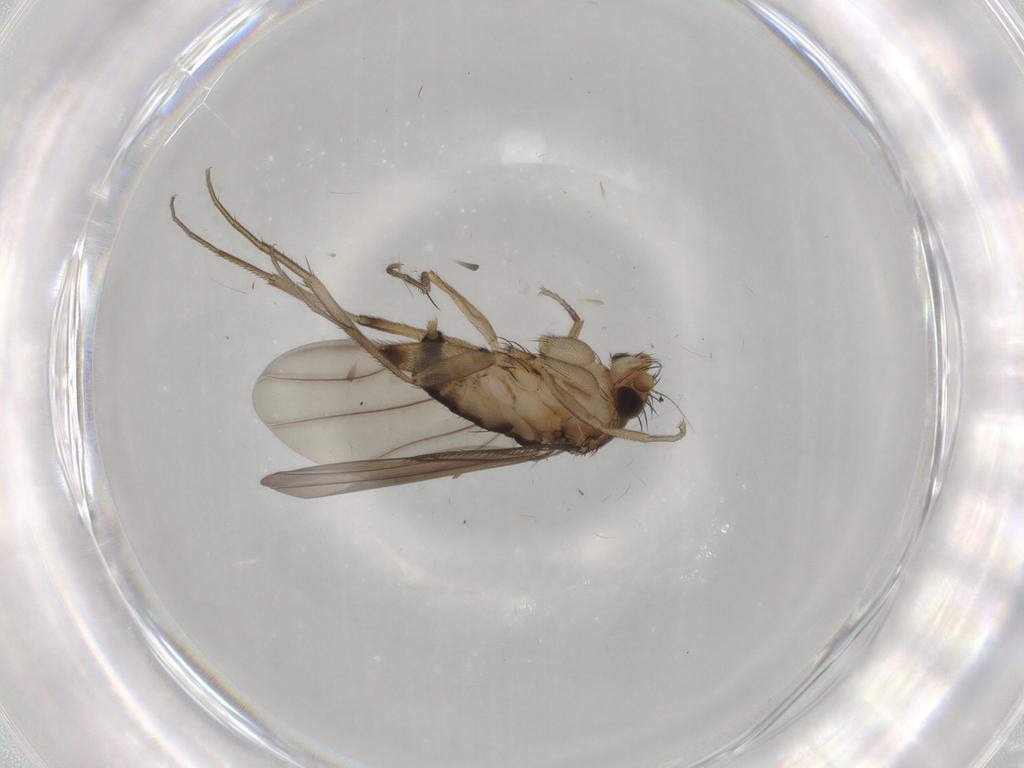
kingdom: Animalia
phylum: Arthropoda
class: Insecta
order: Diptera
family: Phoridae
